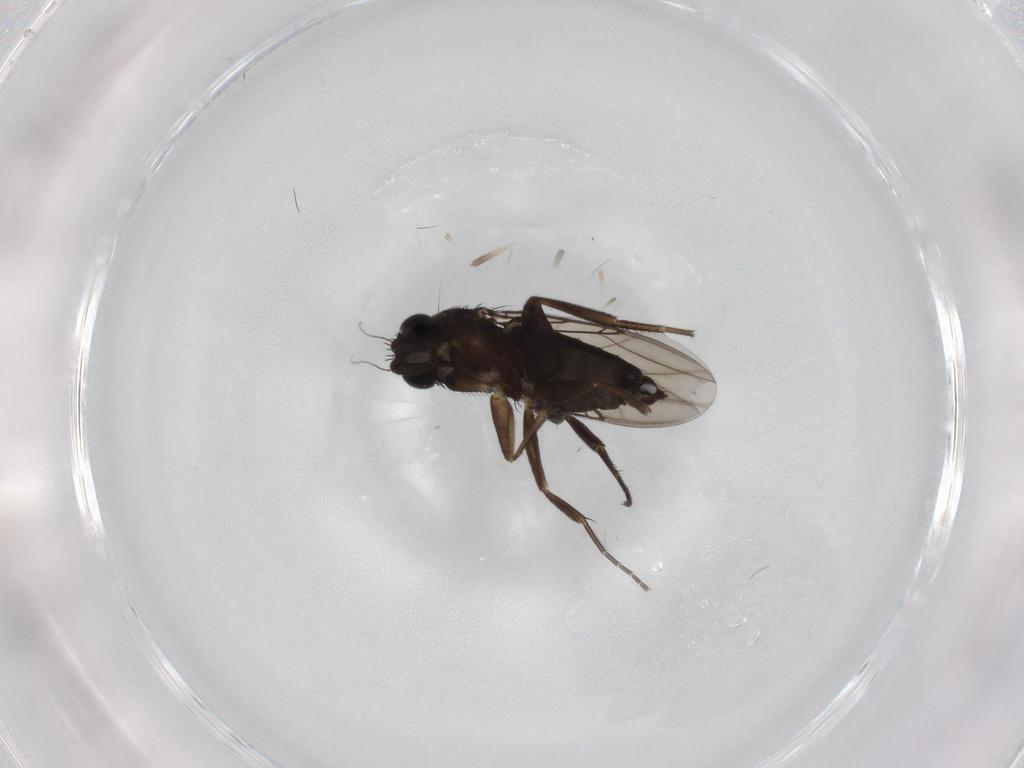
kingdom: Animalia
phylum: Arthropoda
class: Insecta
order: Diptera
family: Phoridae
